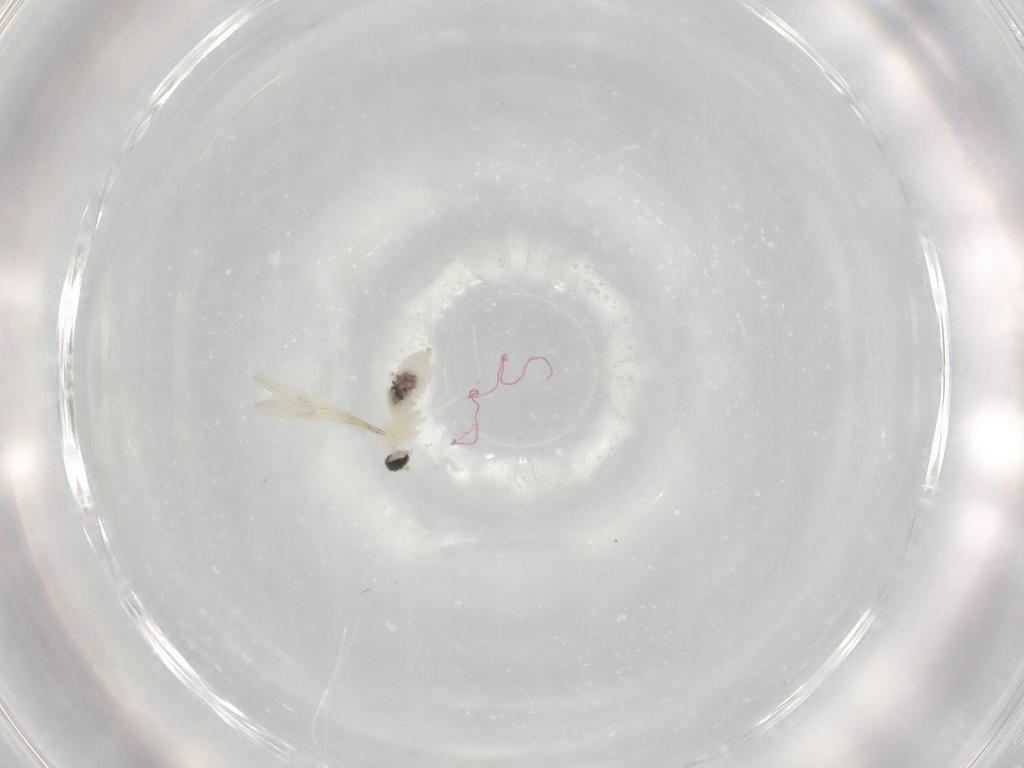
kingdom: Animalia
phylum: Arthropoda
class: Insecta
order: Diptera
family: Cecidomyiidae
